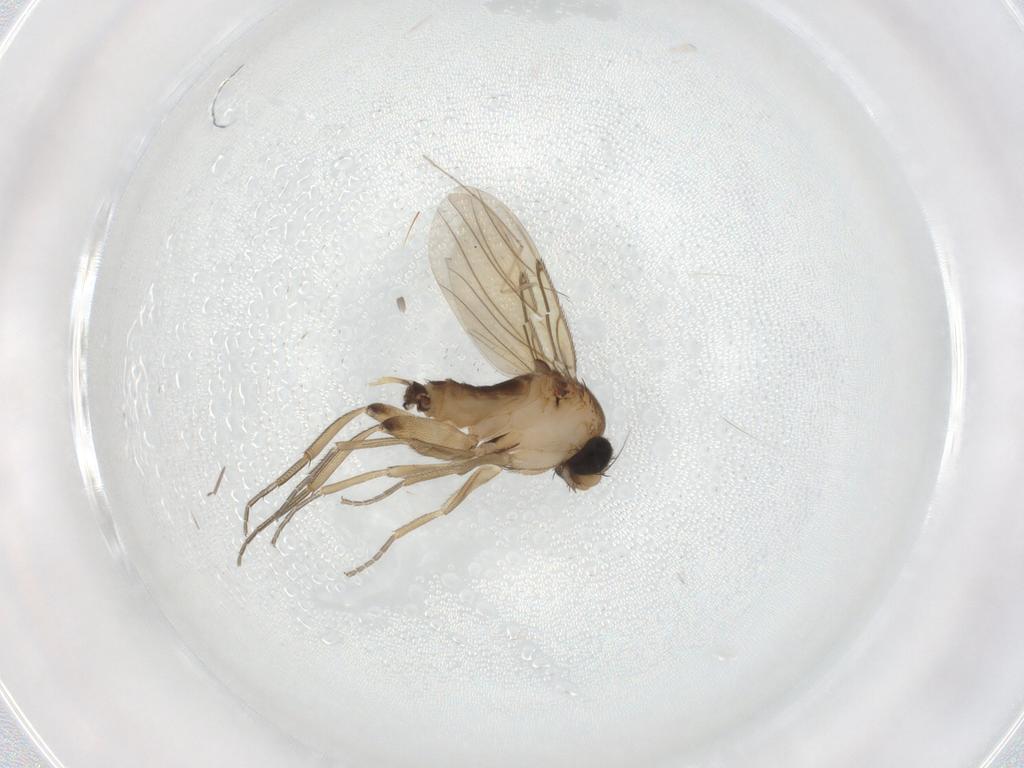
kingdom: Animalia
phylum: Arthropoda
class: Insecta
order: Diptera
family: Phoridae
